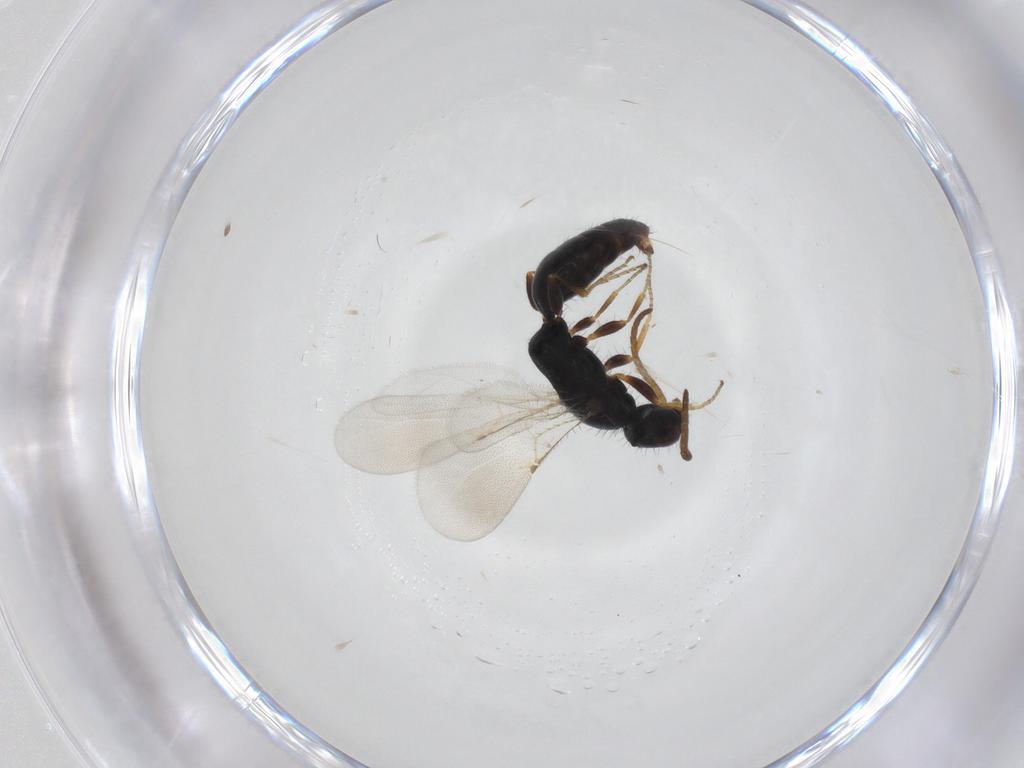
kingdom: Animalia
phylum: Arthropoda
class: Insecta
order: Hymenoptera
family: Bethylidae
